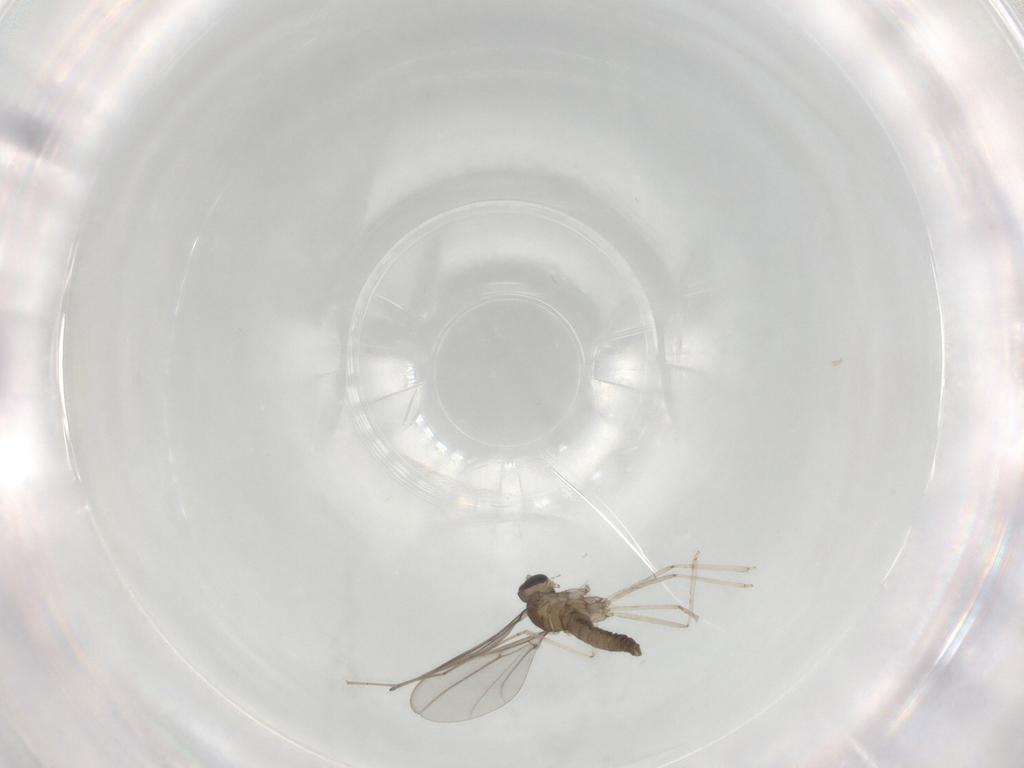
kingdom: Animalia
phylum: Arthropoda
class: Insecta
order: Diptera
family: Cecidomyiidae
